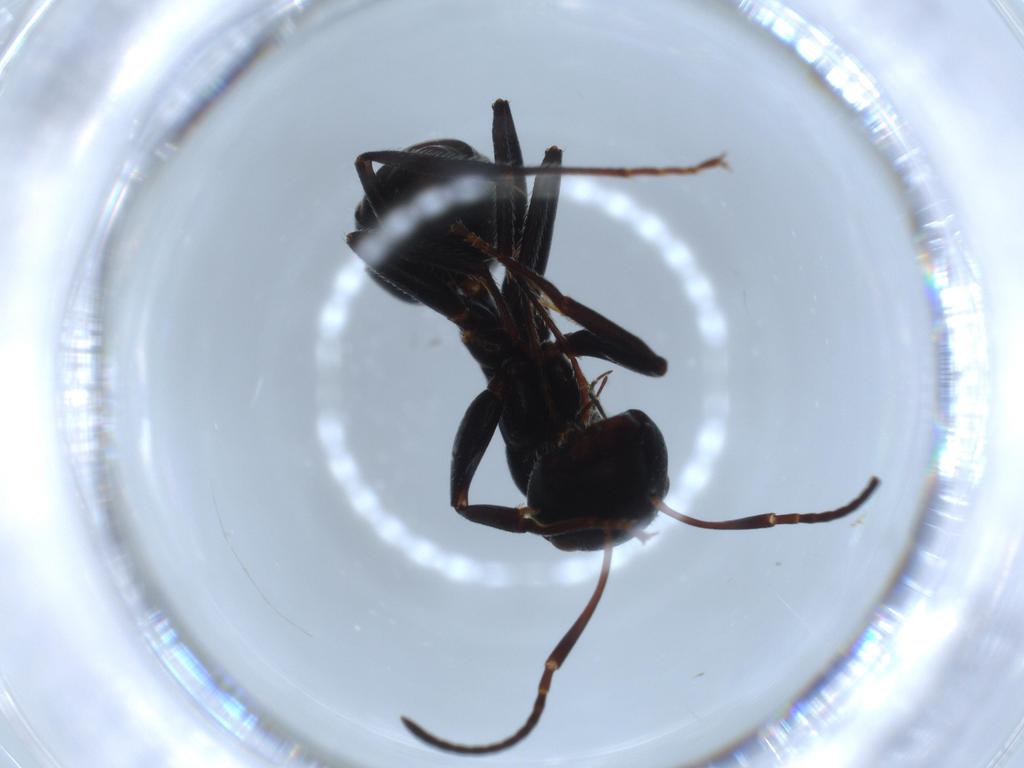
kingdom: Animalia
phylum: Arthropoda
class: Insecta
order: Hymenoptera
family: Formicidae
